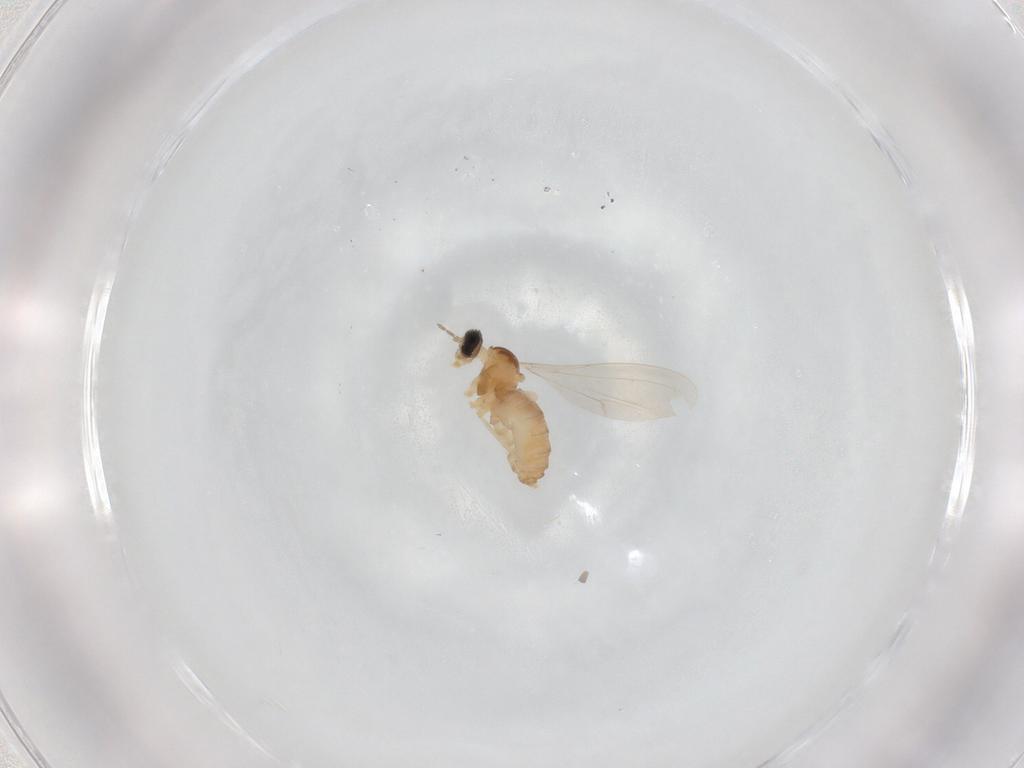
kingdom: Animalia
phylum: Arthropoda
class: Insecta
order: Diptera
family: Cecidomyiidae
